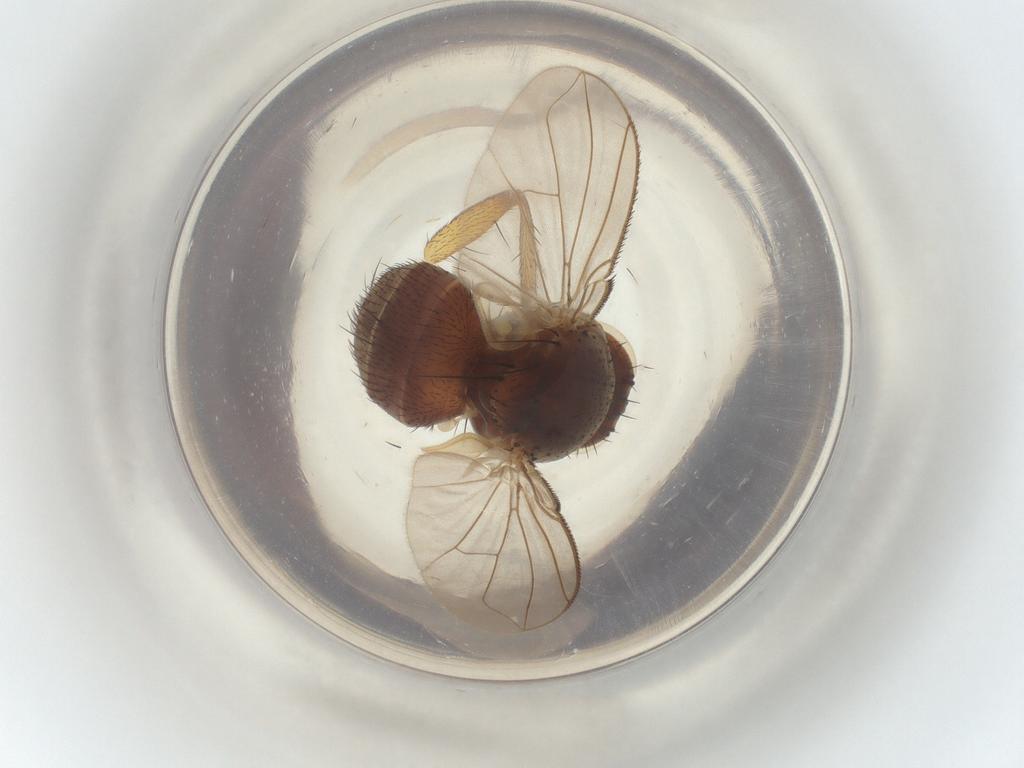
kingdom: Animalia
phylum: Arthropoda
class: Insecta
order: Diptera
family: Tachinidae
